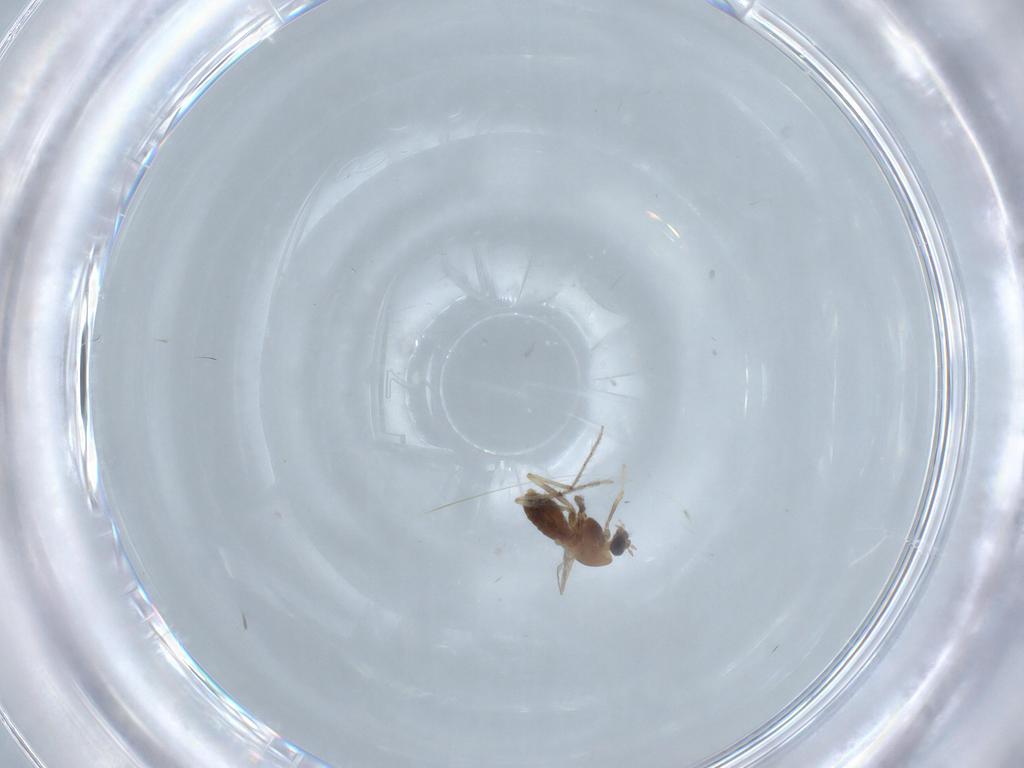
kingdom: Animalia
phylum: Arthropoda
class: Insecta
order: Diptera
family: Chironomidae
